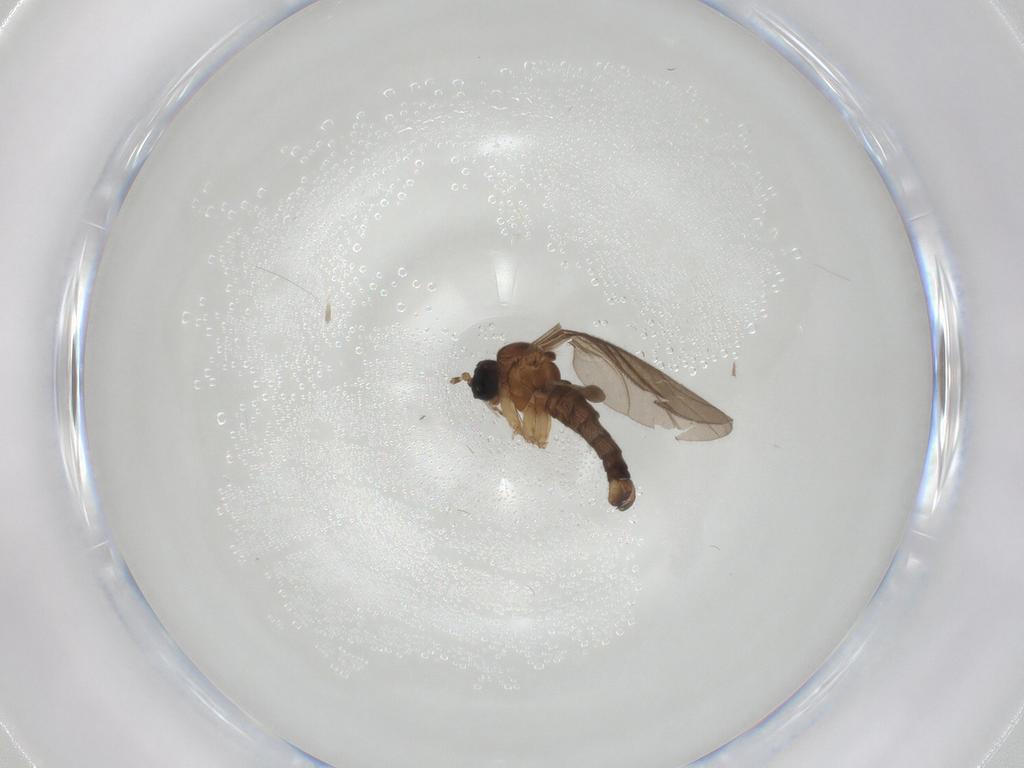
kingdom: Animalia
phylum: Arthropoda
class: Insecta
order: Diptera
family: Sciaridae
